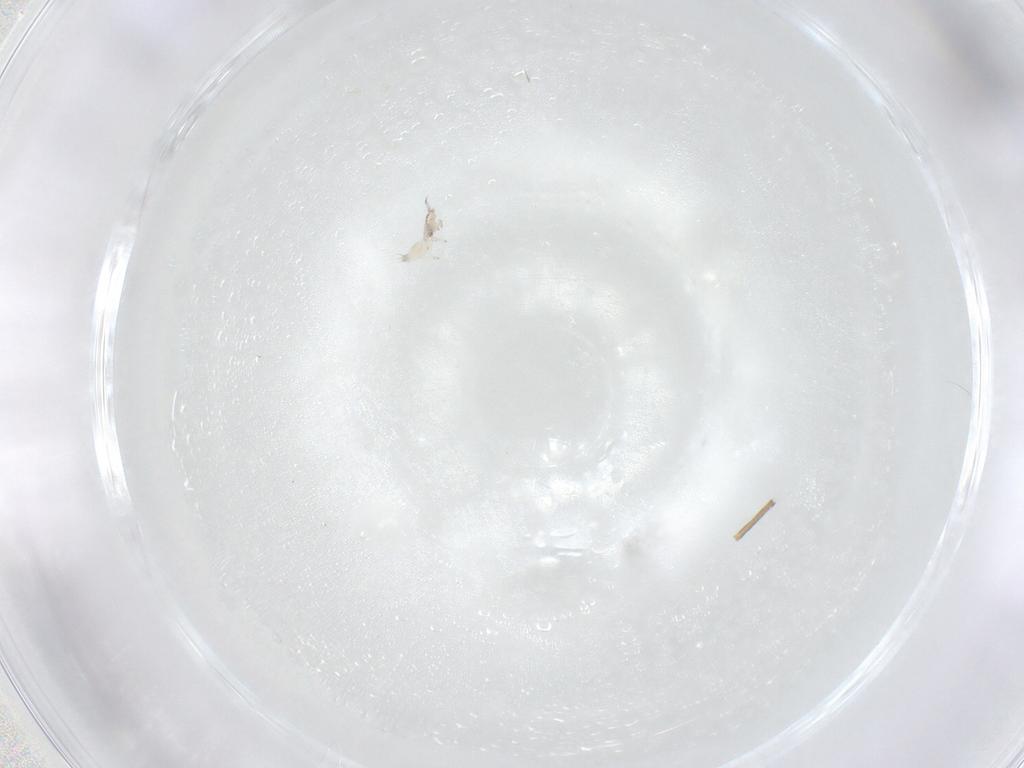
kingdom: Animalia
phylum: Arthropoda
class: Insecta
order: Thysanoptera
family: Thripidae
